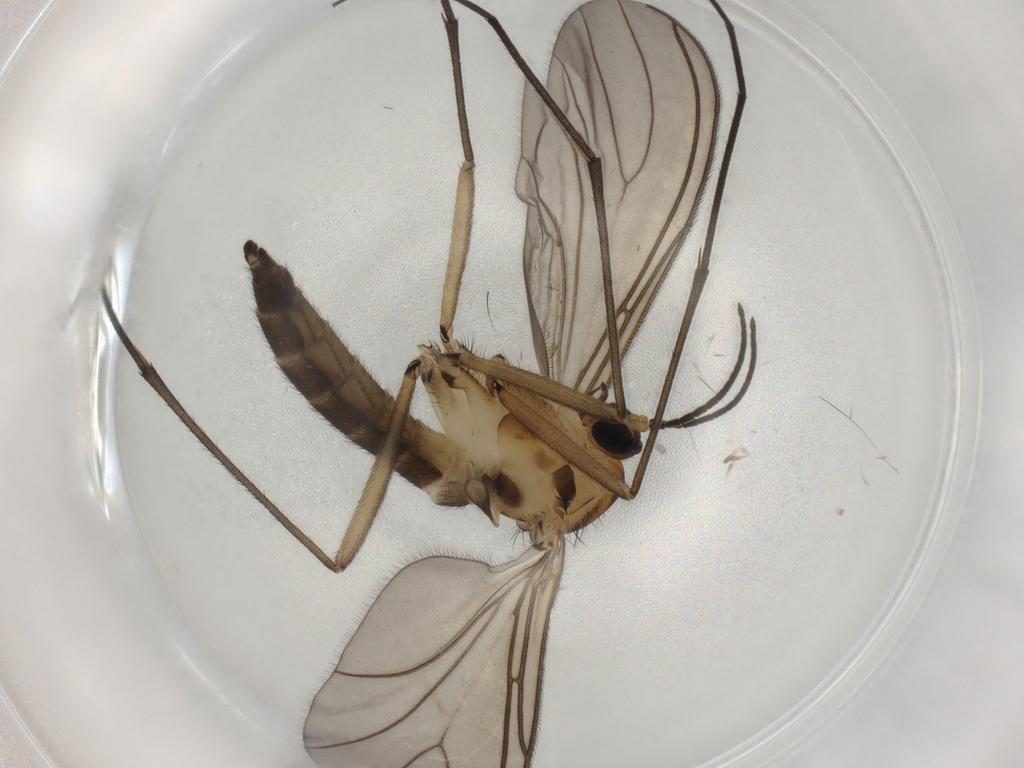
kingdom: Animalia
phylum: Arthropoda
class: Insecta
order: Diptera
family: Sciaridae
